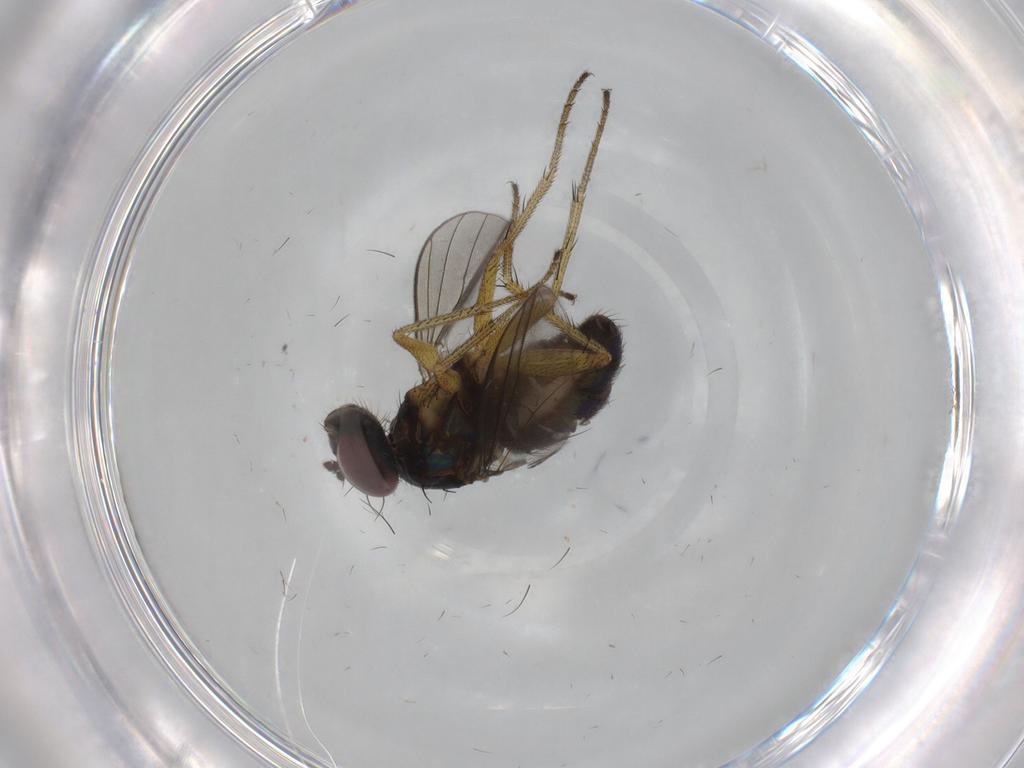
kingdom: Animalia
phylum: Arthropoda
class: Insecta
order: Diptera
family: Dolichopodidae
